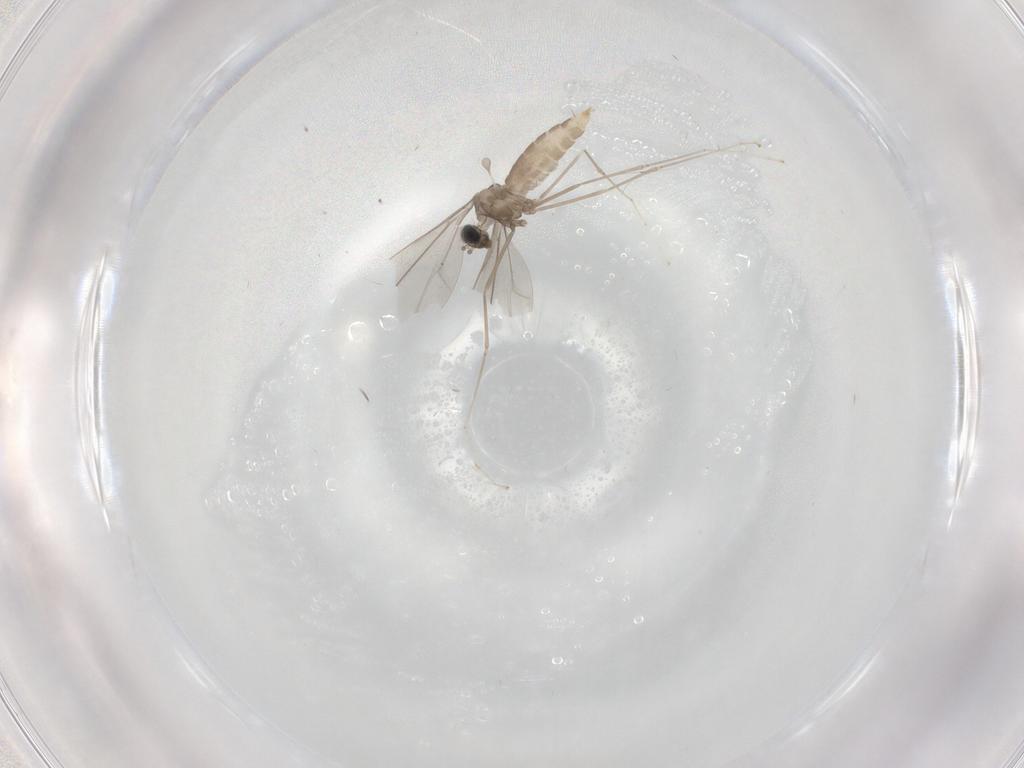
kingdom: Animalia
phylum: Arthropoda
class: Insecta
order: Diptera
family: Cecidomyiidae
